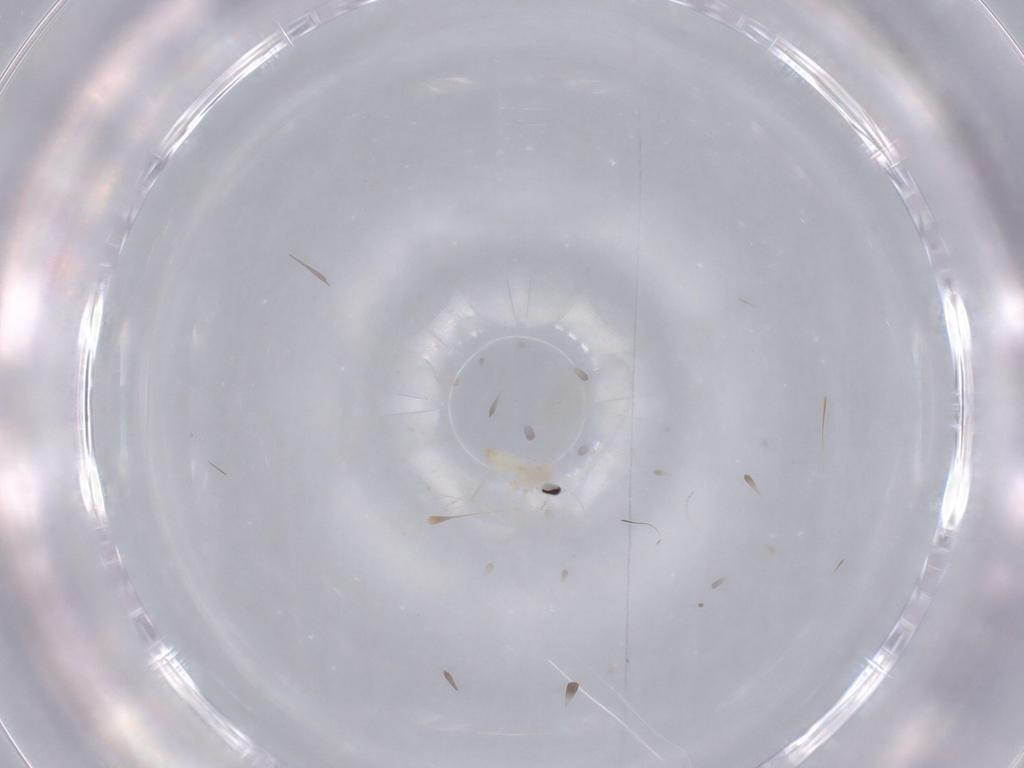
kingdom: Animalia
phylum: Arthropoda
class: Insecta
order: Diptera
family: Cecidomyiidae
